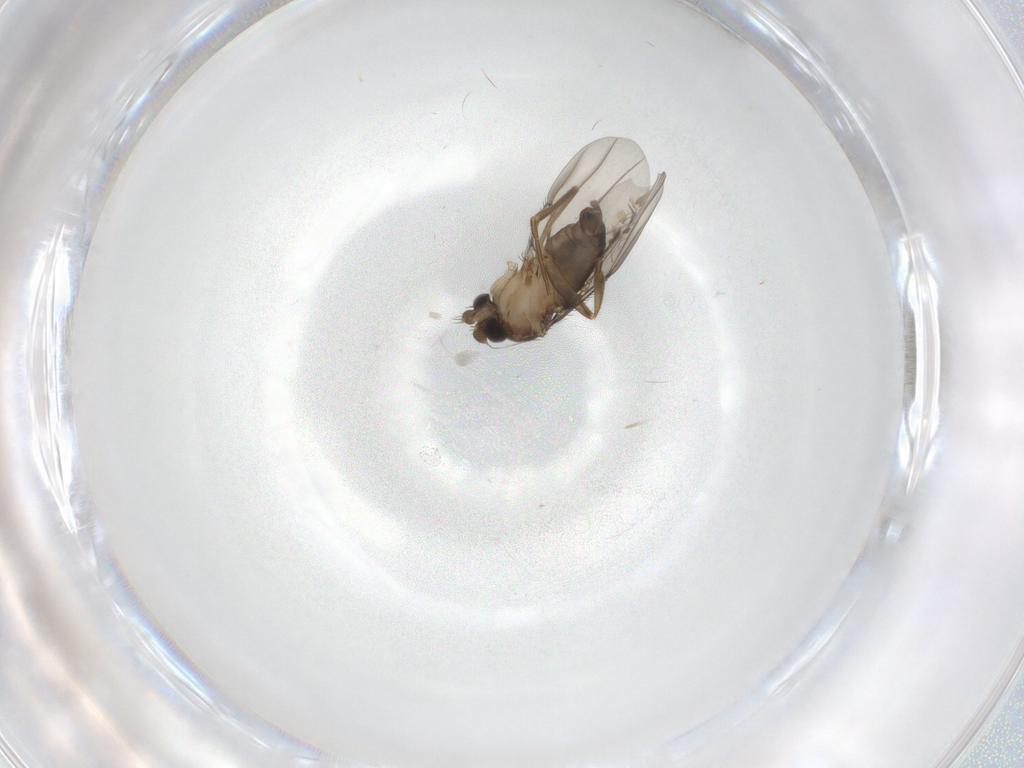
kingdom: Animalia
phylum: Arthropoda
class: Insecta
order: Diptera
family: Phoridae
